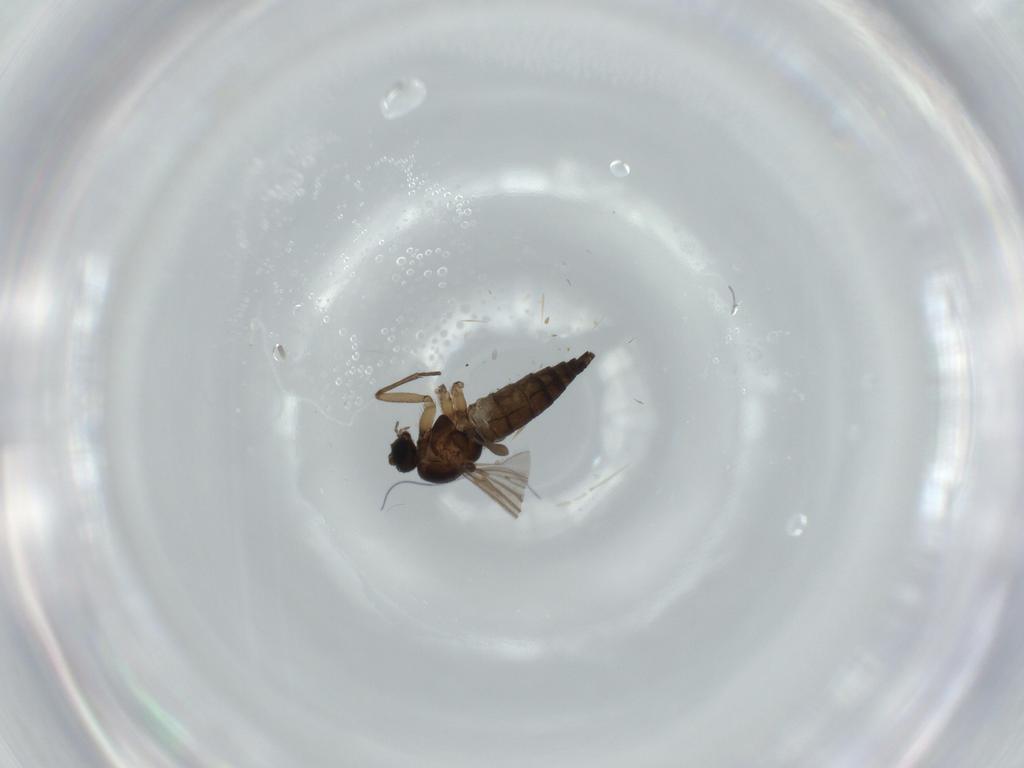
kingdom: Animalia
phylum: Arthropoda
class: Insecta
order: Diptera
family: Sciaridae
